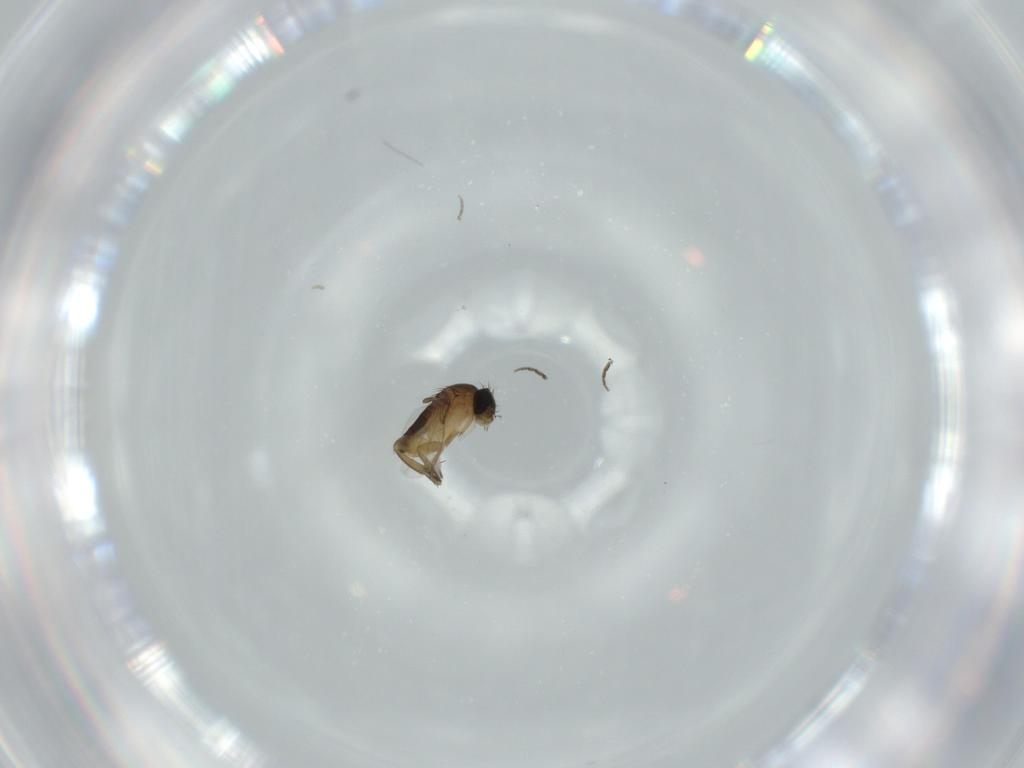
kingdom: Animalia
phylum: Arthropoda
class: Insecta
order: Diptera
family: Phoridae
